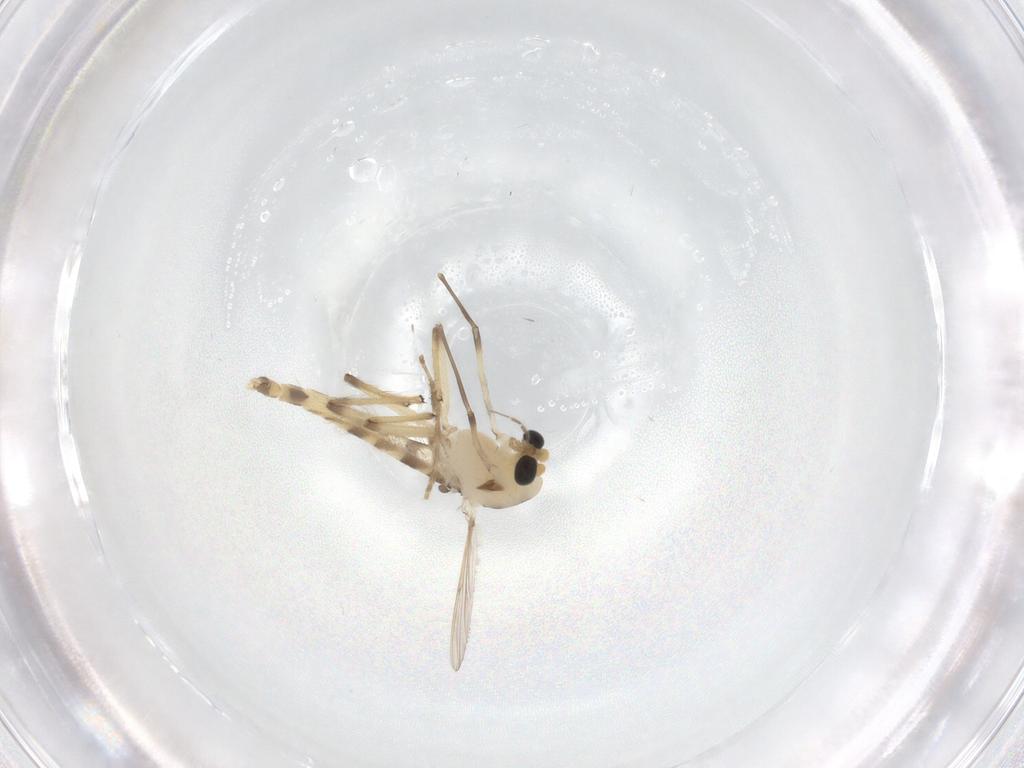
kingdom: Animalia
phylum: Arthropoda
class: Insecta
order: Diptera
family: Chironomidae
